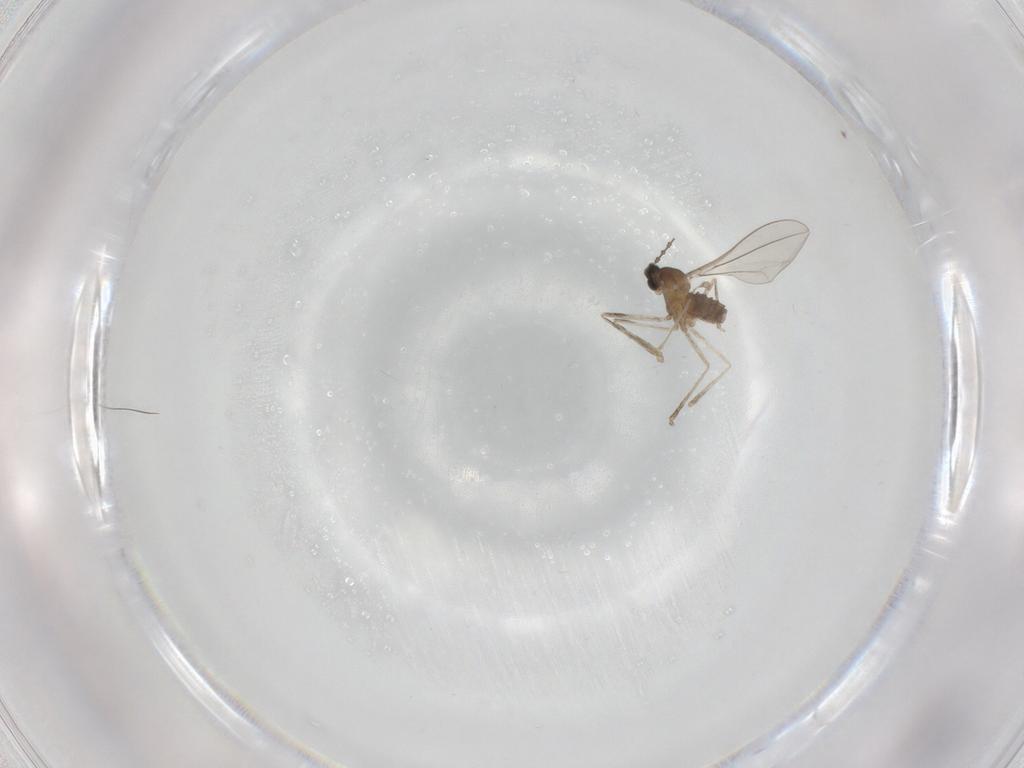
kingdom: Animalia
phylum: Arthropoda
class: Insecta
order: Diptera
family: Cecidomyiidae
